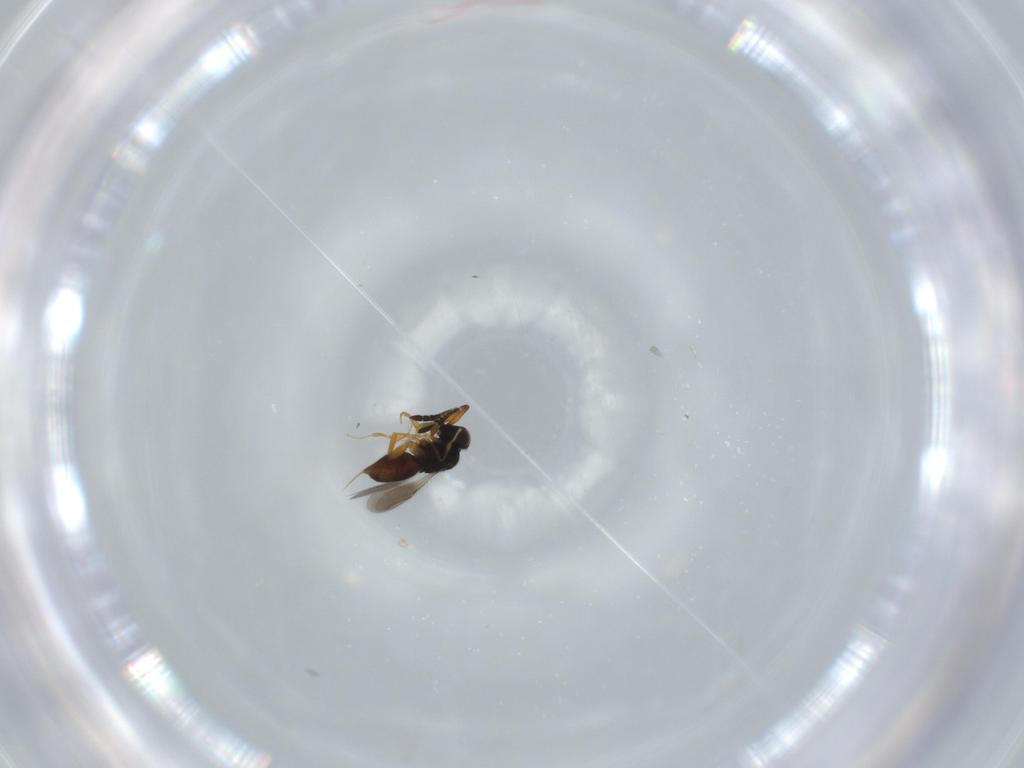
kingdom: Animalia
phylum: Arthropoda
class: Insecta
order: Hymenoptera
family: Ceraphronidae
